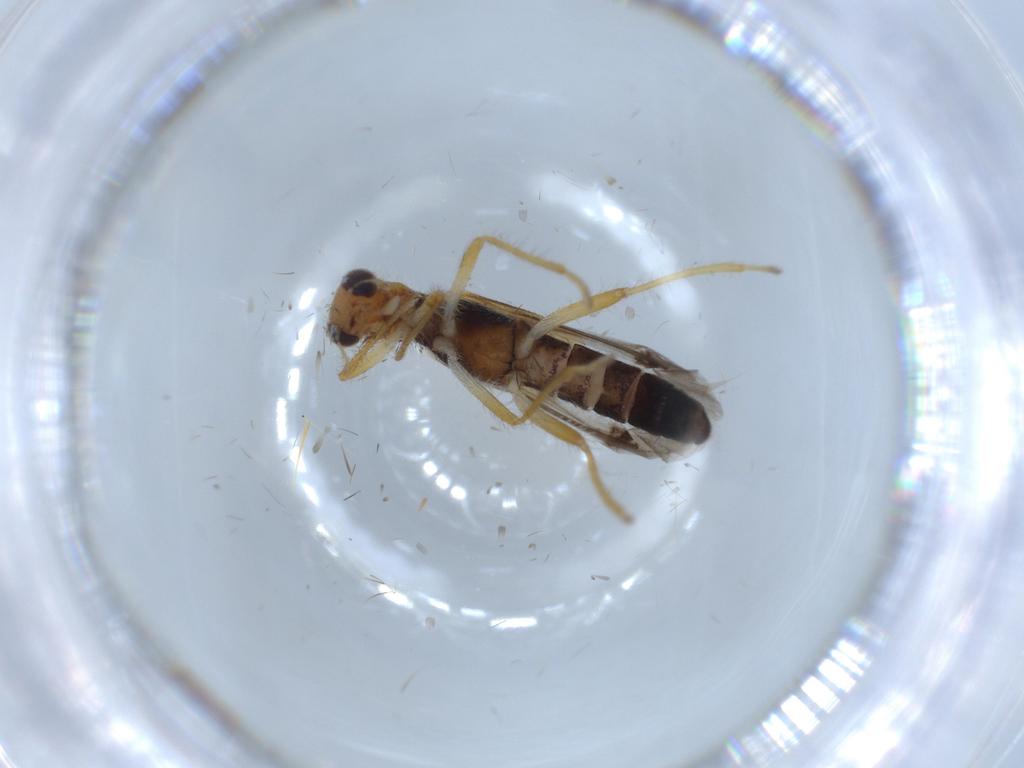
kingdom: Animalia
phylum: Arthropoda
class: Insecta
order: Coleoptera
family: Cleridae
